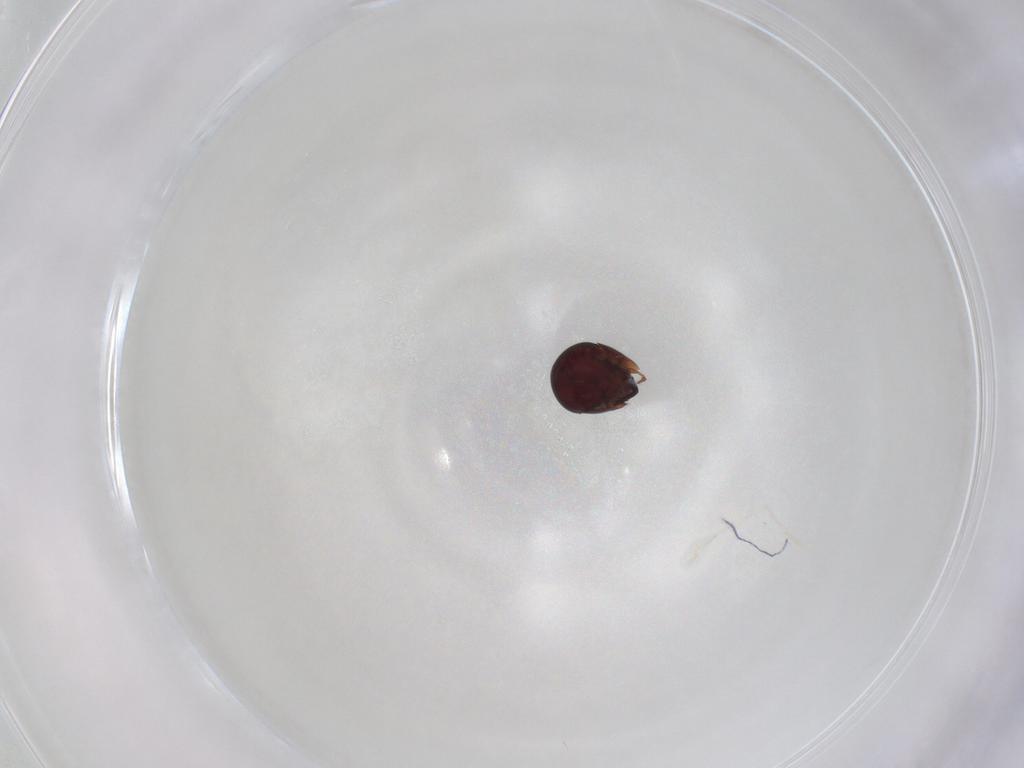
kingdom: Animalia
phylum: Arthropoda
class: Arachnida
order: Sarcoptiformes
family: Galumnidae
